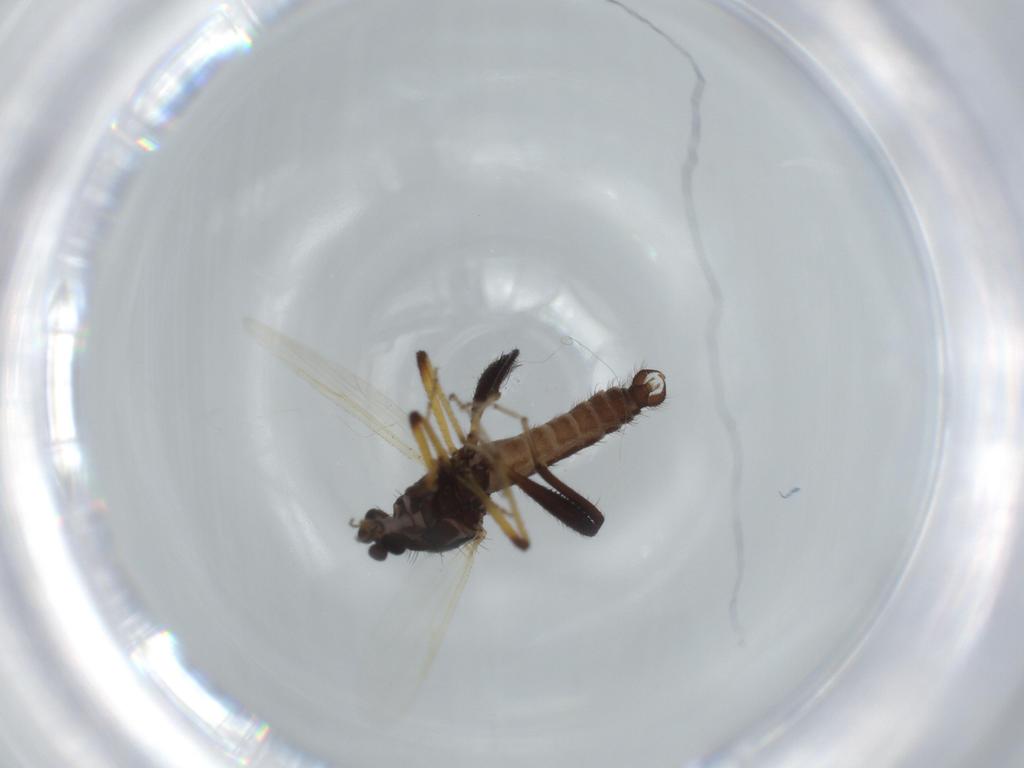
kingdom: Animalia
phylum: Arthropoda
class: Insecta
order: Diptera
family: Ceratopogonidae
